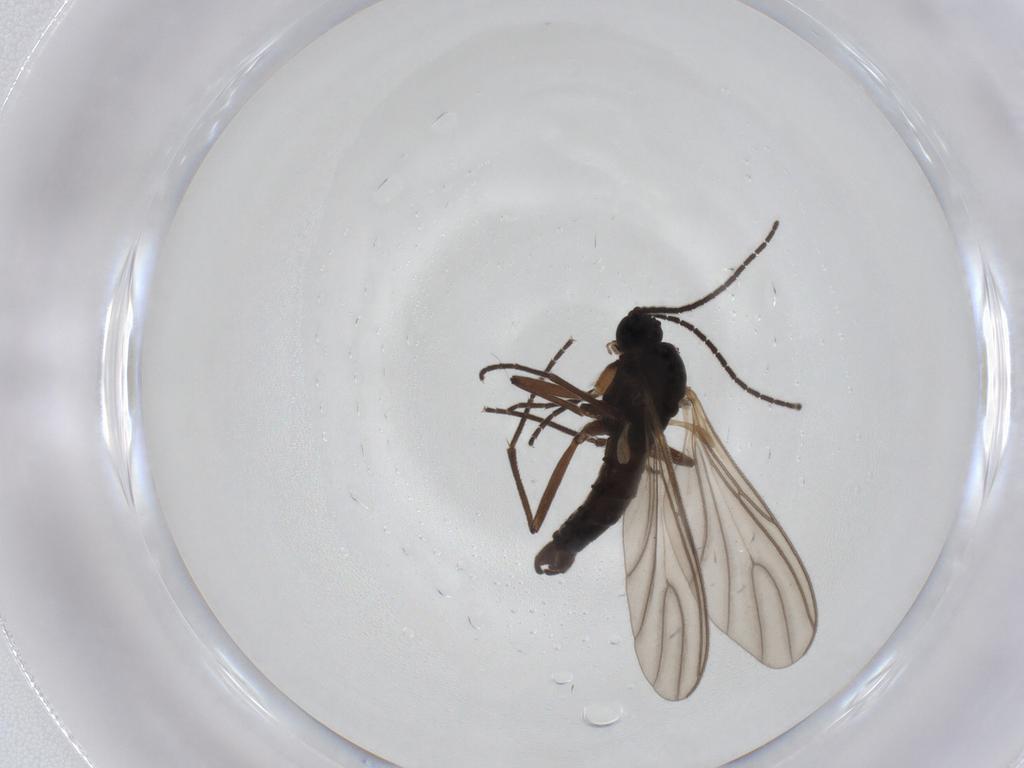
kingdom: Animalia
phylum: Arthropoda
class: Insecta
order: Diptera
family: Sciaridae
